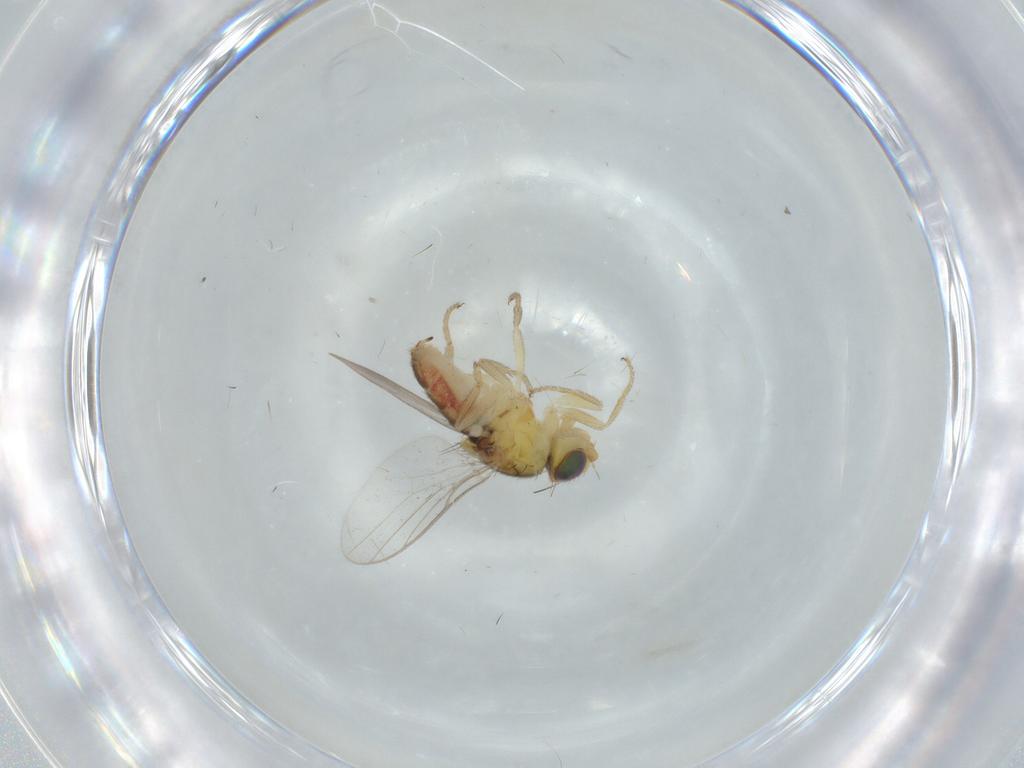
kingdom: Animalia
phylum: Arthropoda
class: Insecta
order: Diptera
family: Chloropidae
